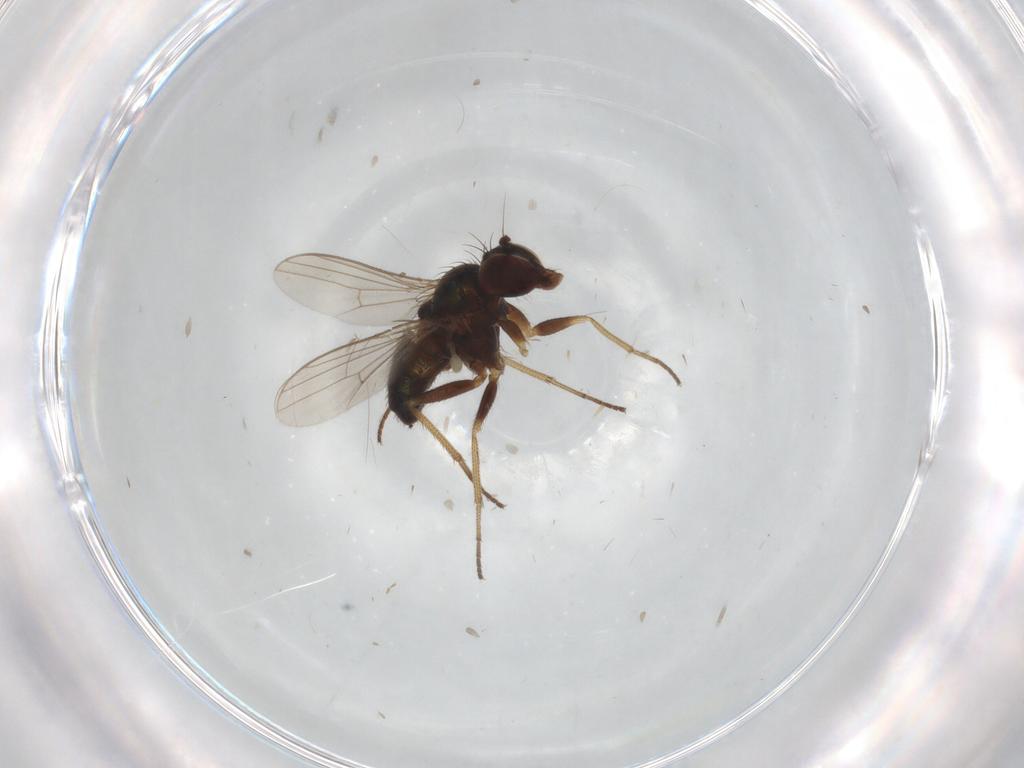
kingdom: Animalia
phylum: Arthropoda
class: Insecta
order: Diptera
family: Dolichopodidae
